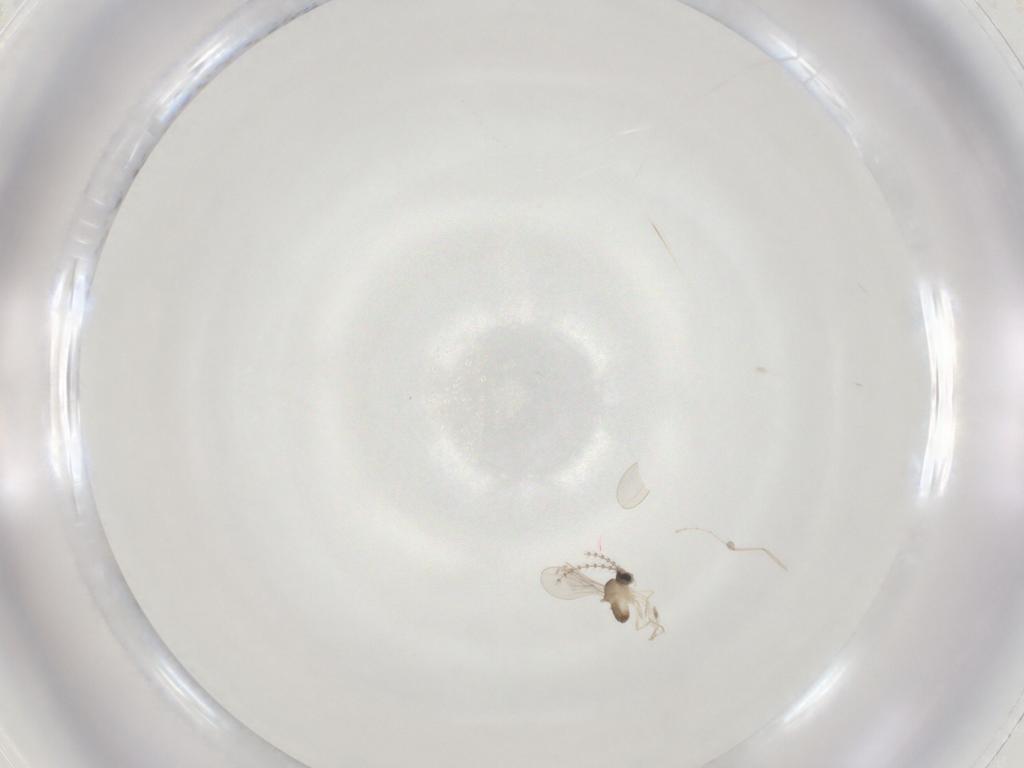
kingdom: Animalia
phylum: Arthropoda
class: Insecta
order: Diptera
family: Cecidomyiidae
